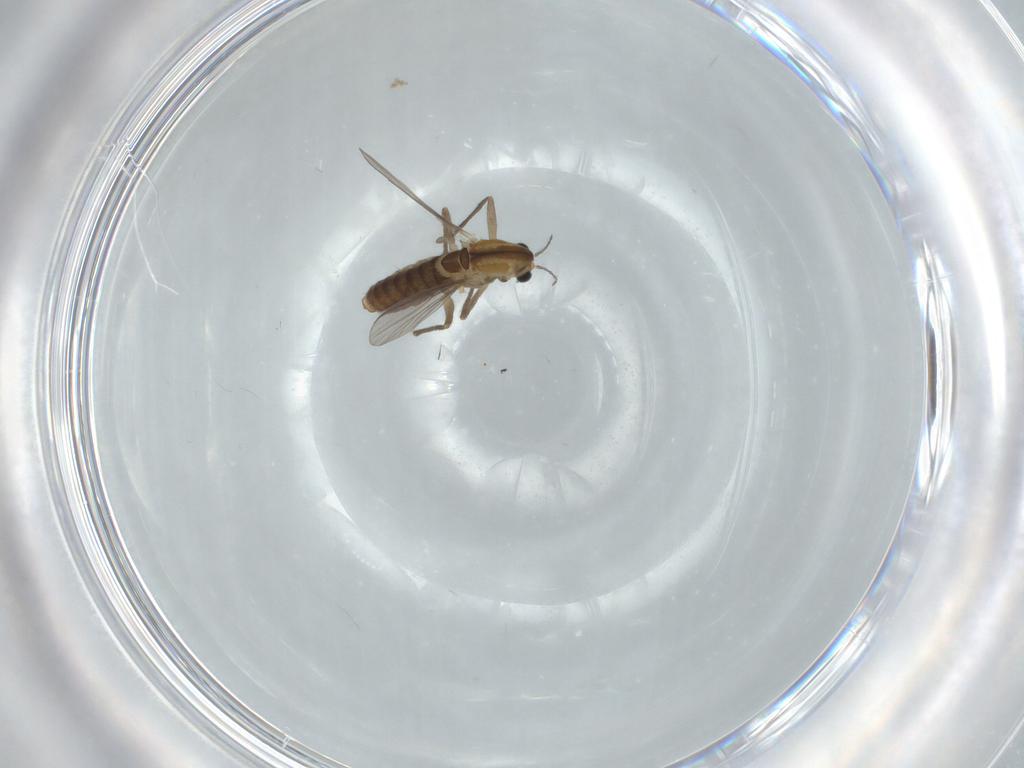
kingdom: Animalia
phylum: Arthropoda
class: Insecta
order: Diptera
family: Chironomidae
